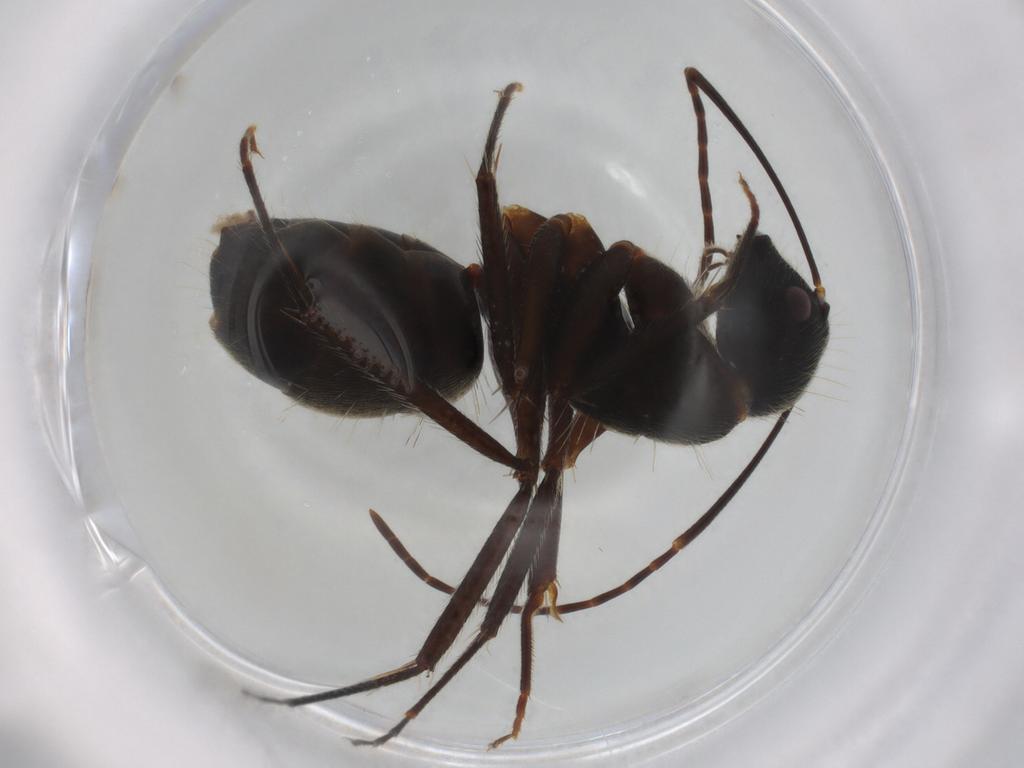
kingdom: Animalia
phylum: Arthropoda
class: Insecta
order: Hymenoptera
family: Formicidae
